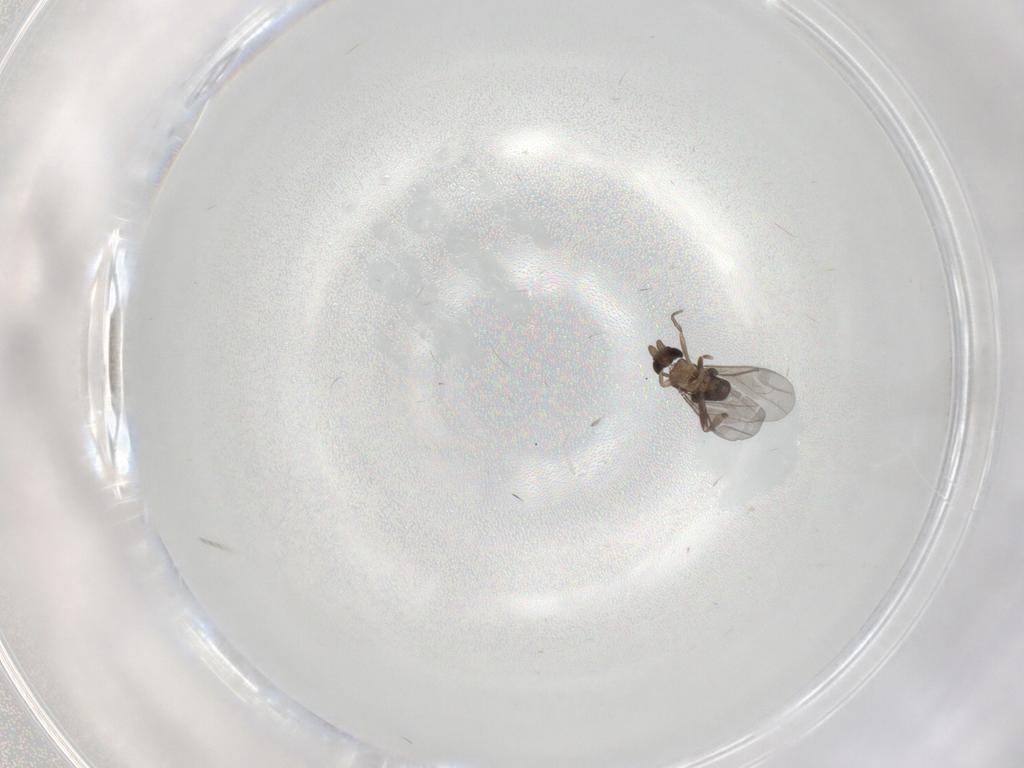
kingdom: Animalia
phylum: Arthropoda
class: Insecta
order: Diptera
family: Phoridae
